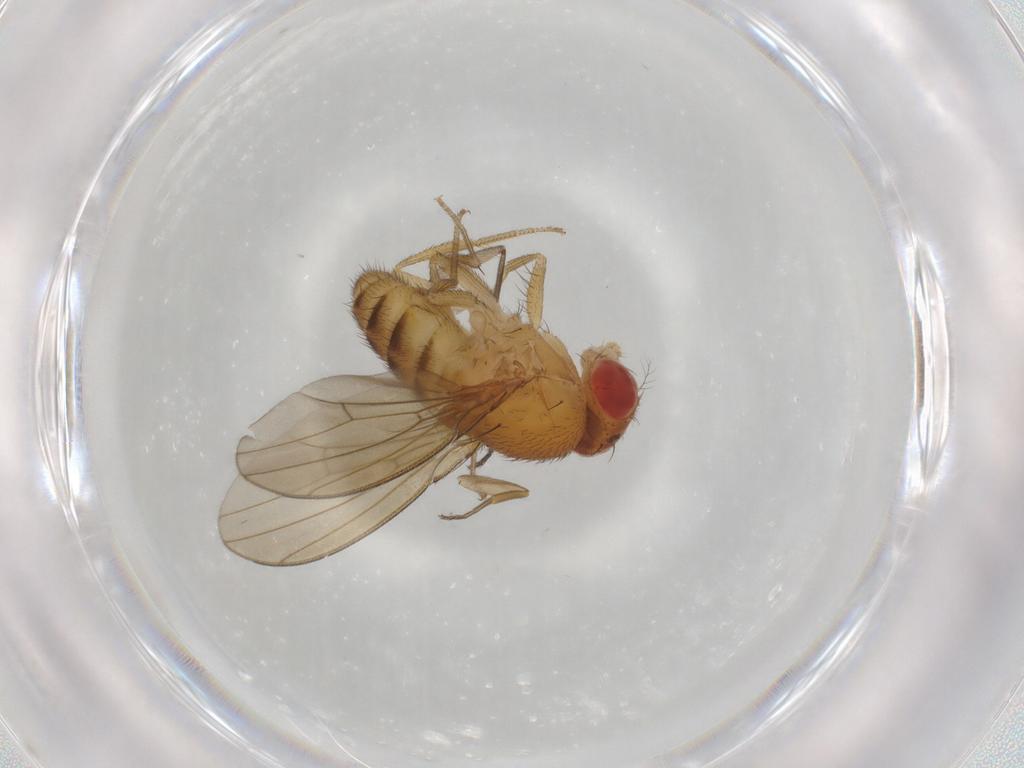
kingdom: Animalia
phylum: Arthropoda
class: Insecta
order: Diptera
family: Drosophilidae
